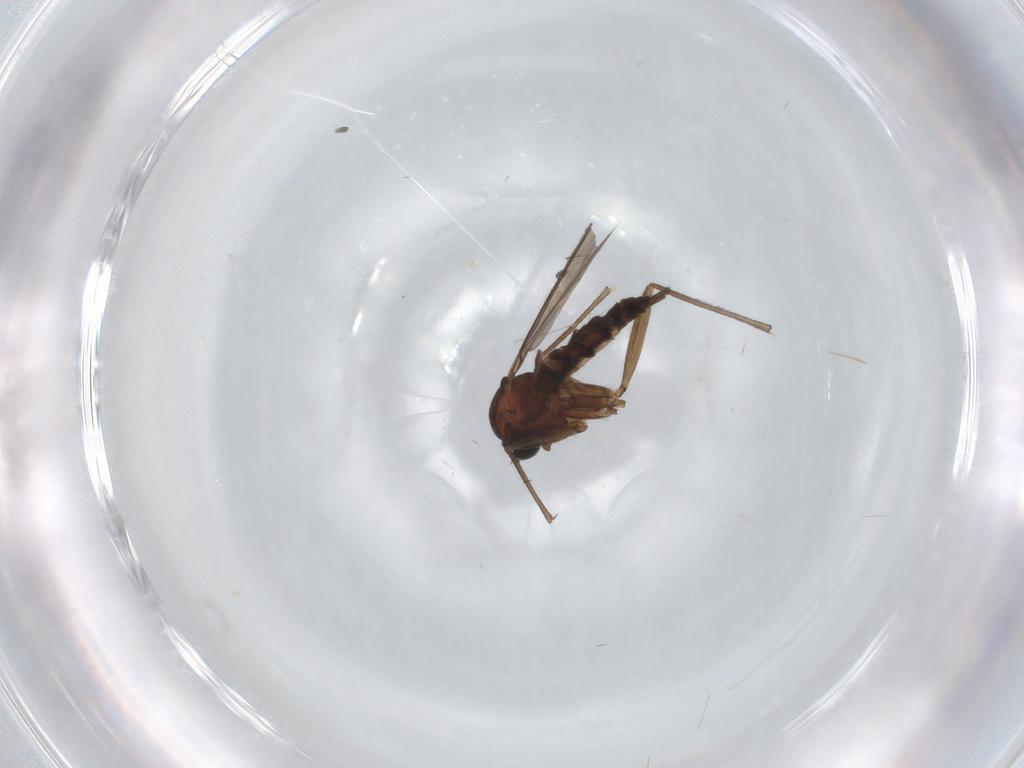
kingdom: Animalia
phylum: Arthropoda
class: Insecta
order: Diptera
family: Sciaridae
